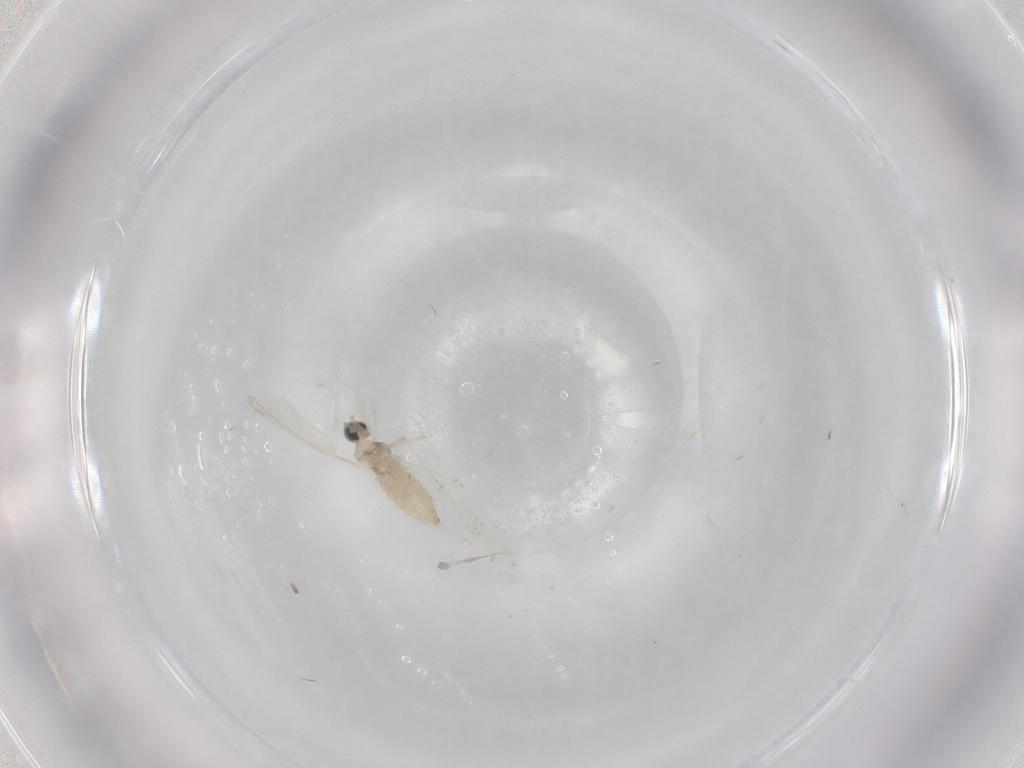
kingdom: Animalia
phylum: Arthropoda
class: Insecta
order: Diptera
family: Cecidomyiidae
